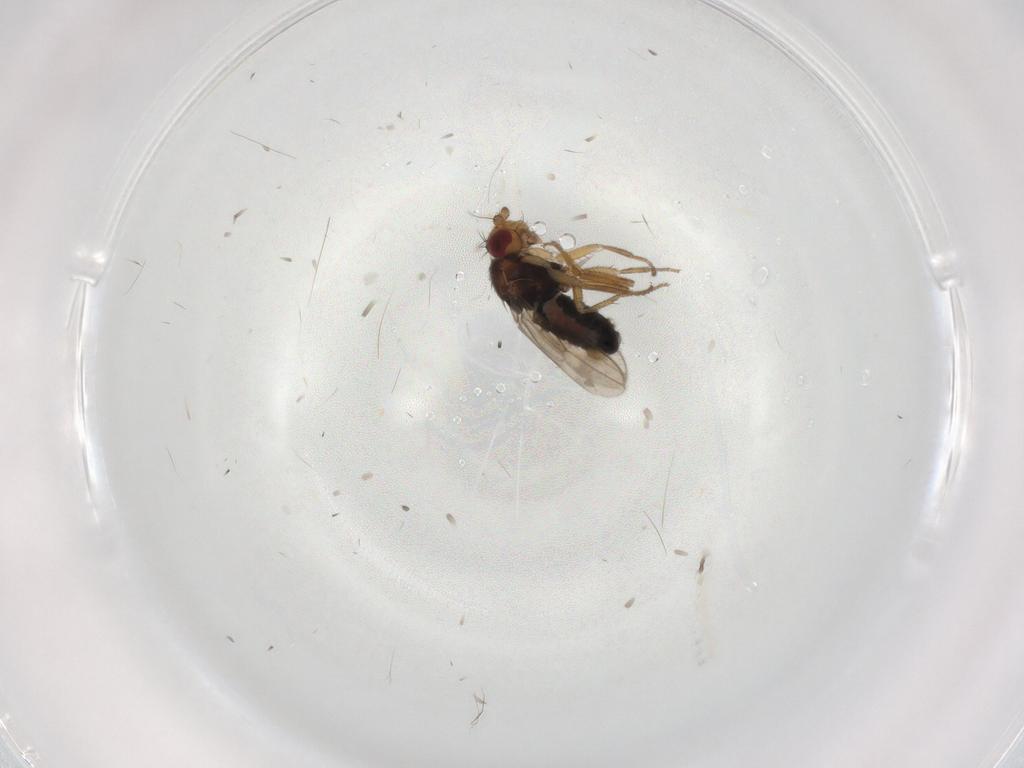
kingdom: Animalia
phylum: Arthropoda
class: Insecta
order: Diptera
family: Sphaeroceridae
